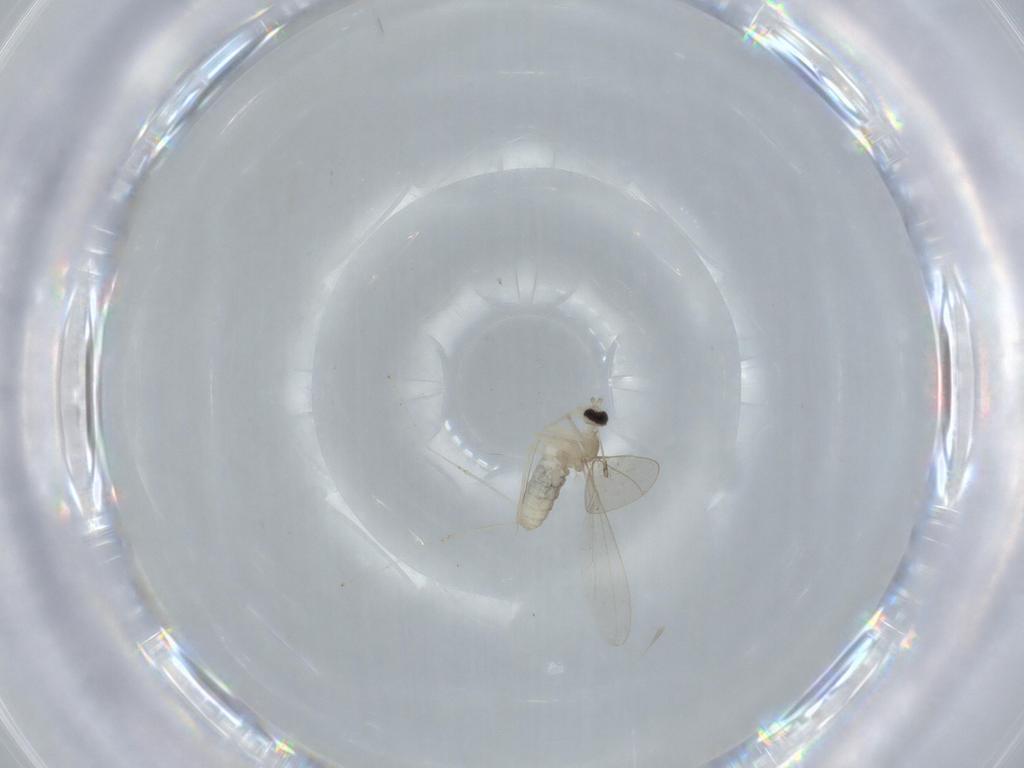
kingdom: Animalia
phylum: Arthropoda
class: Insecta
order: Diptera
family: Cecidomyiidae
